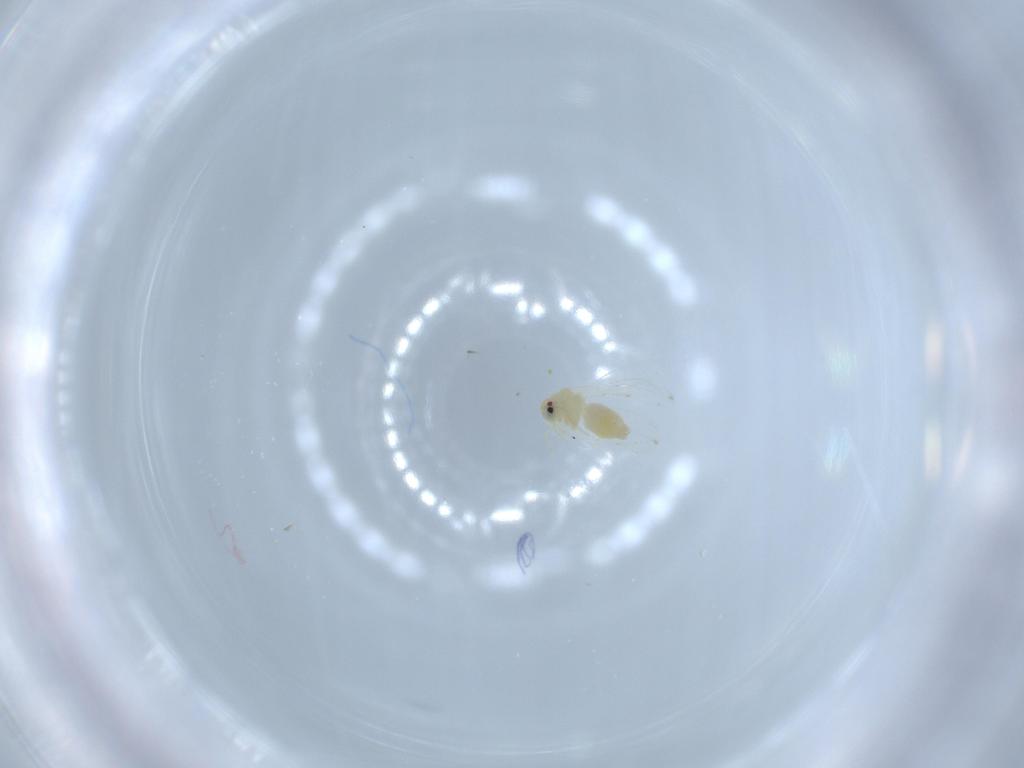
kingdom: Animalia
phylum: Arthropoda
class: Insecta
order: Hemiptera
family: Aleyrodidae
